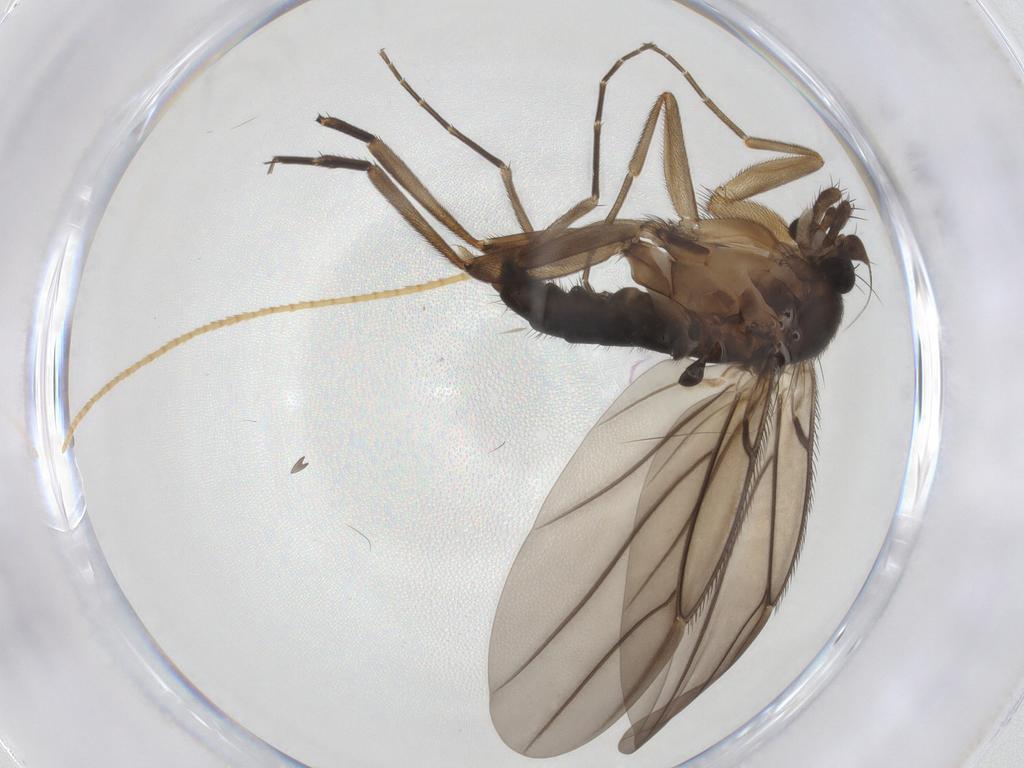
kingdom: Animalia
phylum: Arthropoda
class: Insecta
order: Diptera
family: Phoridae
